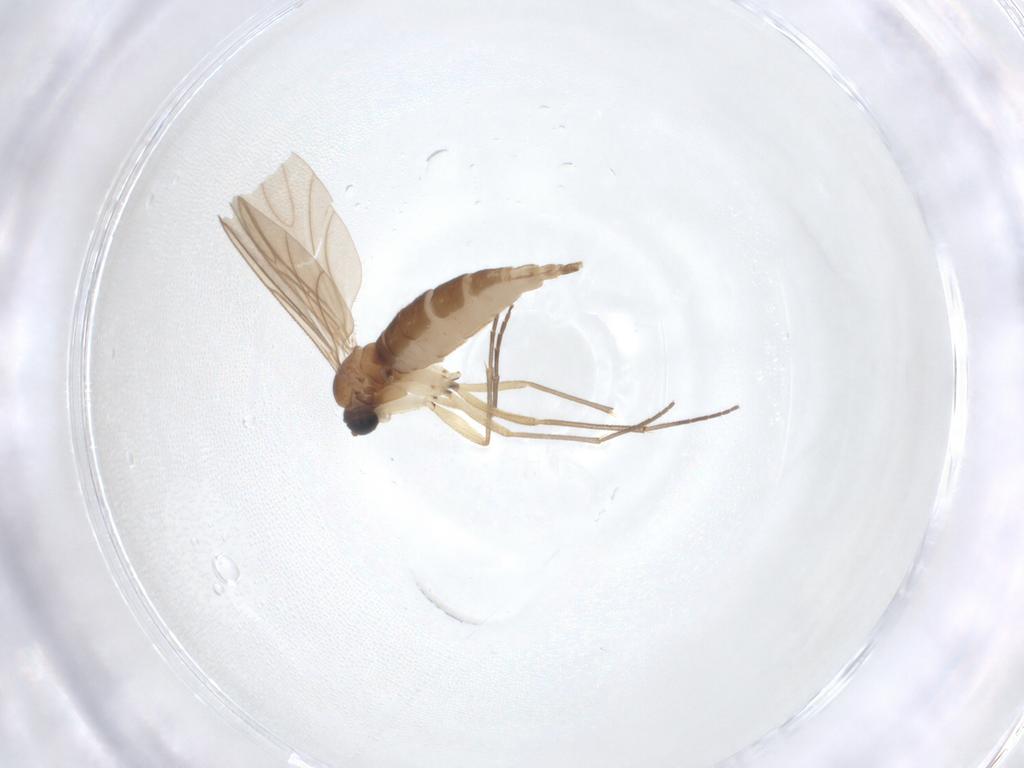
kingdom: Animalia
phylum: Arthropoda
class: Insecta
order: Diptera
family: Sciaridae
